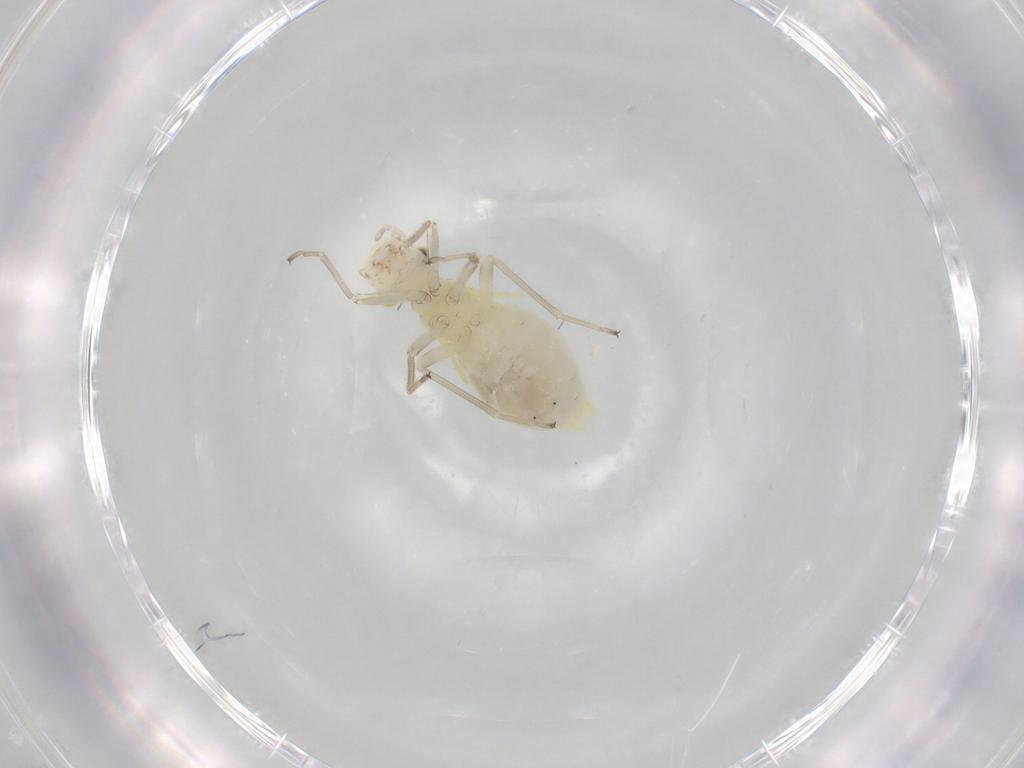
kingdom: Animalia
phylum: Arthropoda
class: Insecta
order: Psocodea
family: Caeciliusidae
